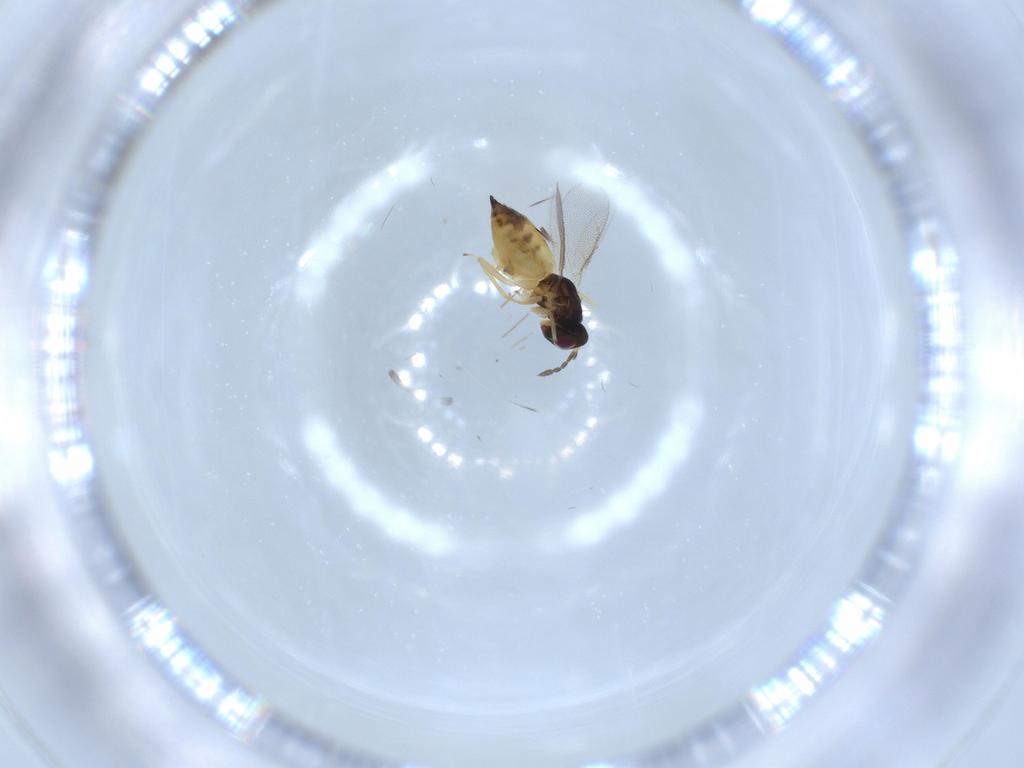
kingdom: Animalia
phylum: Arthropoda
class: Insecta
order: Hymenoptera
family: Eulophidae
